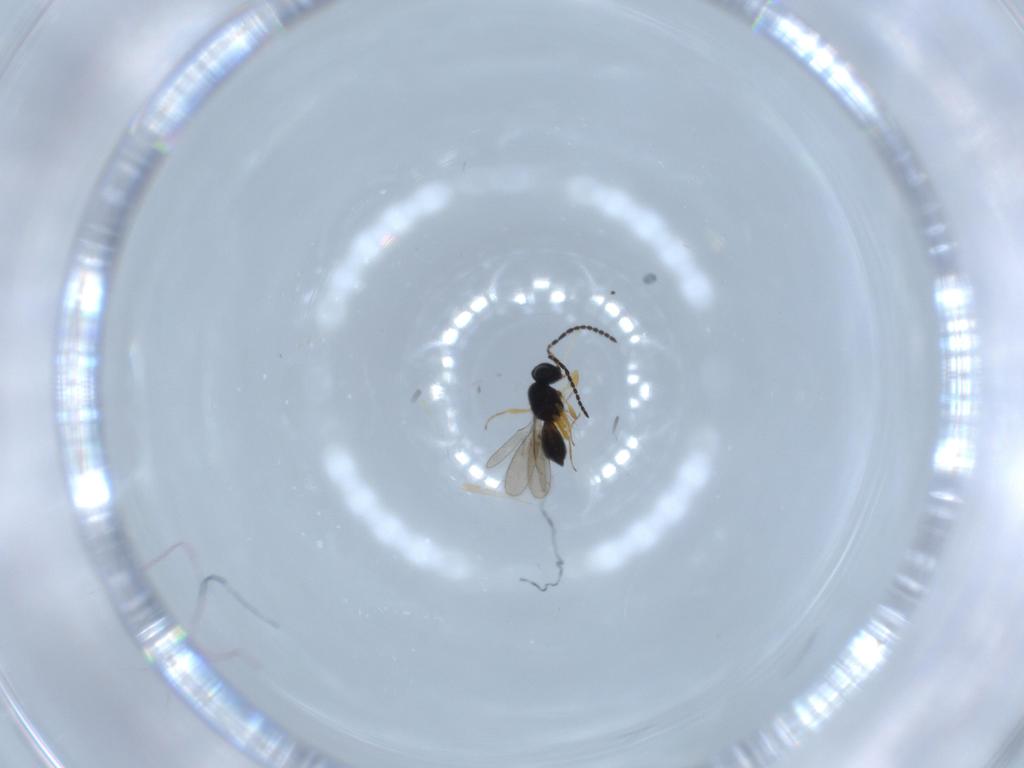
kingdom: Animalia
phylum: Arthropoda
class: Insecta
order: Hymenoptera
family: Scelionidae
